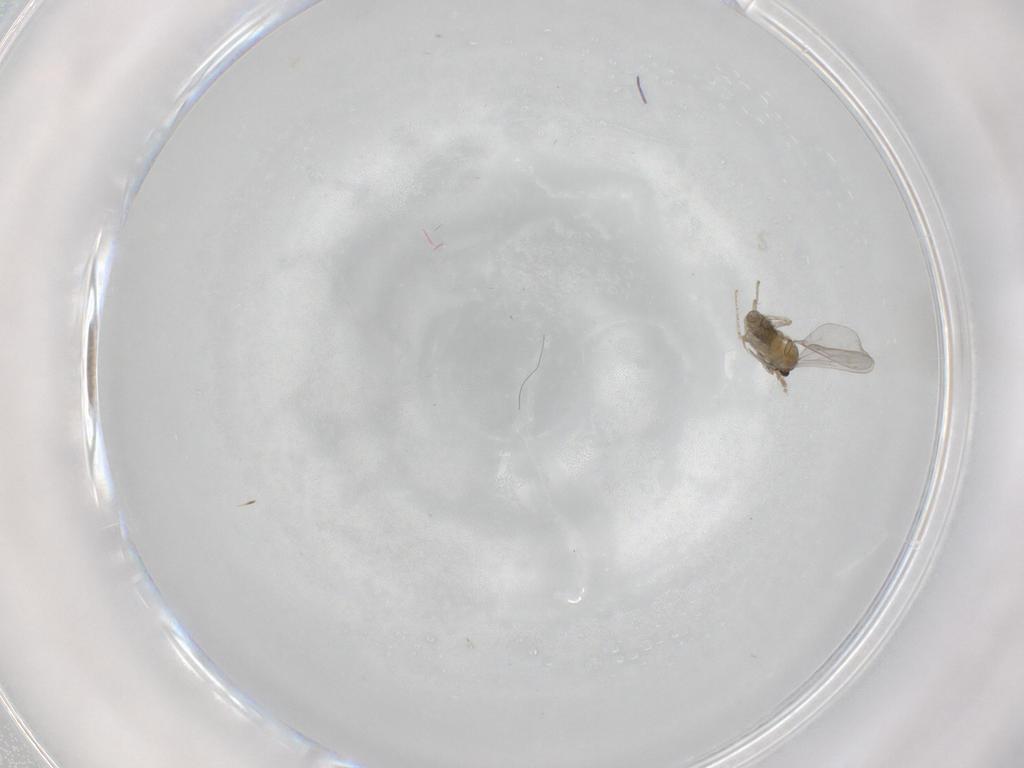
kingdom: Animalia
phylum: Arthropoda
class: Insecta
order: Diptera
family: Cecidomyiidae
